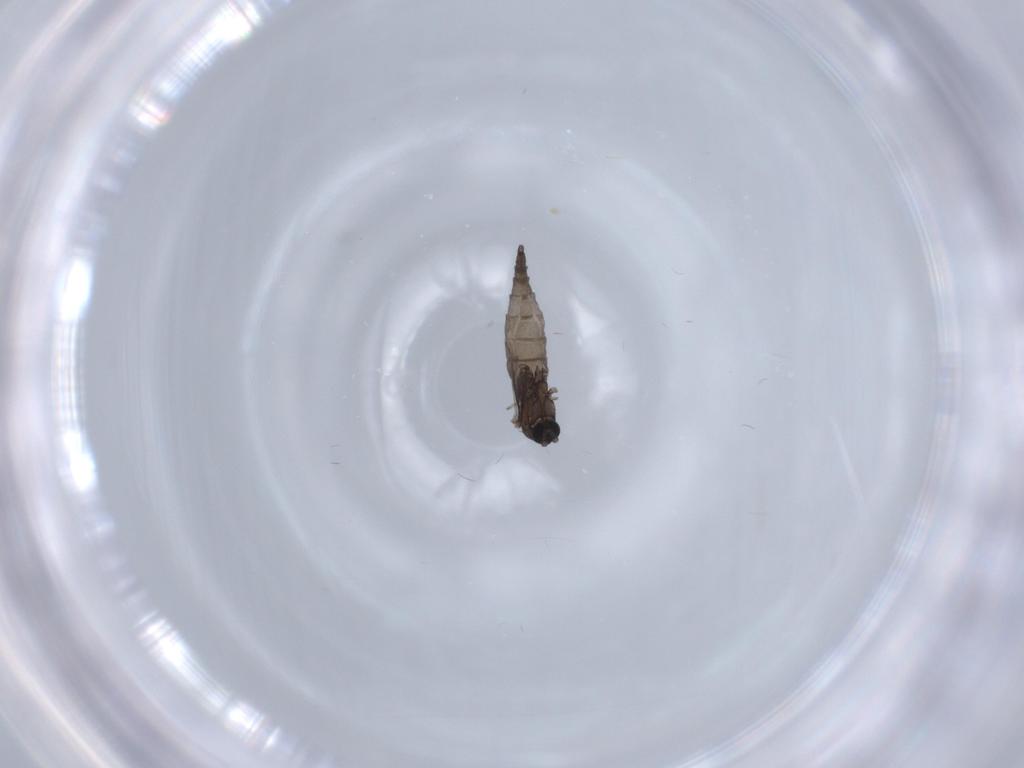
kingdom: Animalia
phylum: Arthropoda
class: Insecta
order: Diptera
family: Sciaridae
